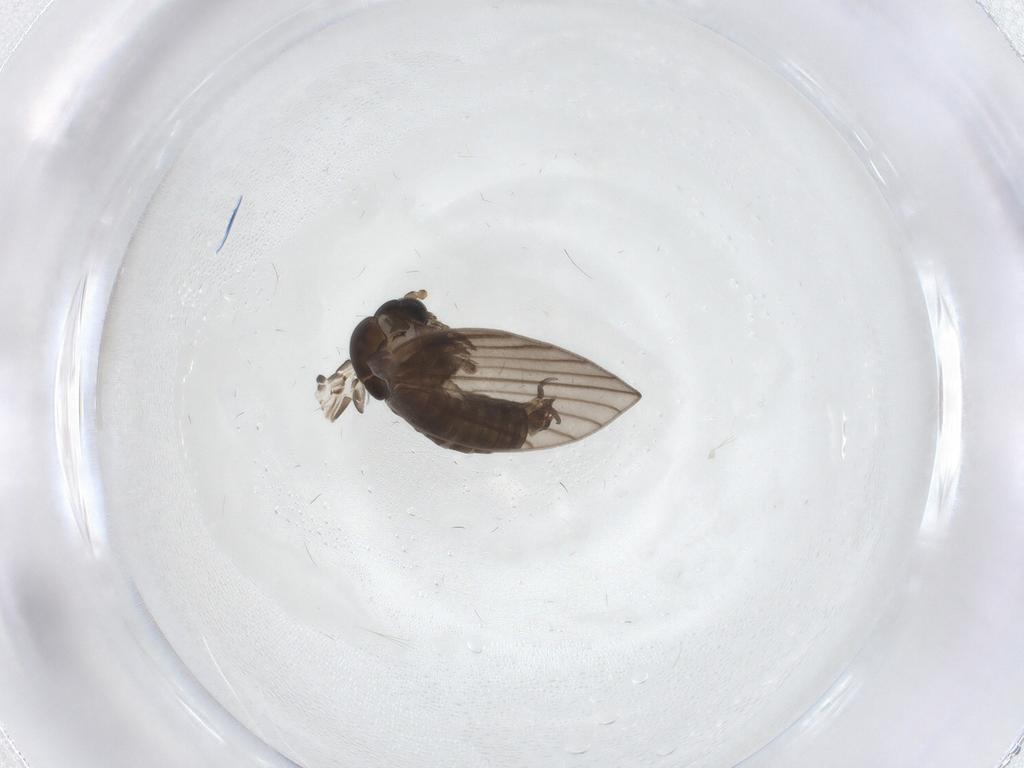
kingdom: Animalia
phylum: Arthropoda
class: Insecta
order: Diptera
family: Psychodidae
